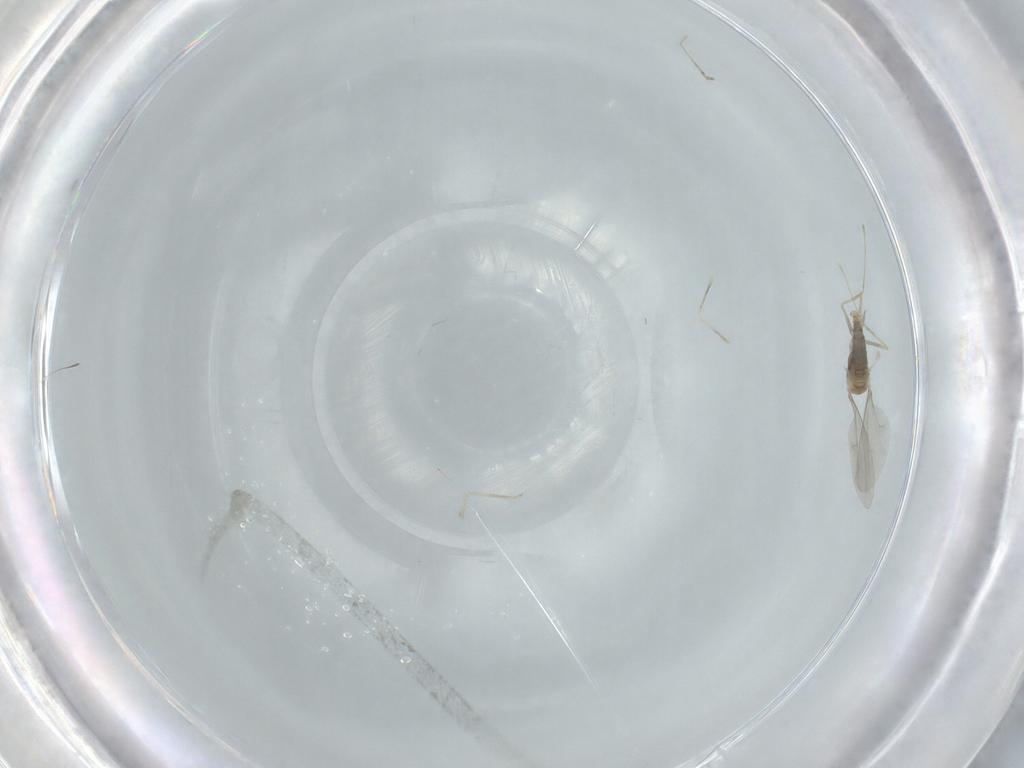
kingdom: Animalia
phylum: Arthropoda
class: Insecta
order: Diptera
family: Cecidomyiidae
